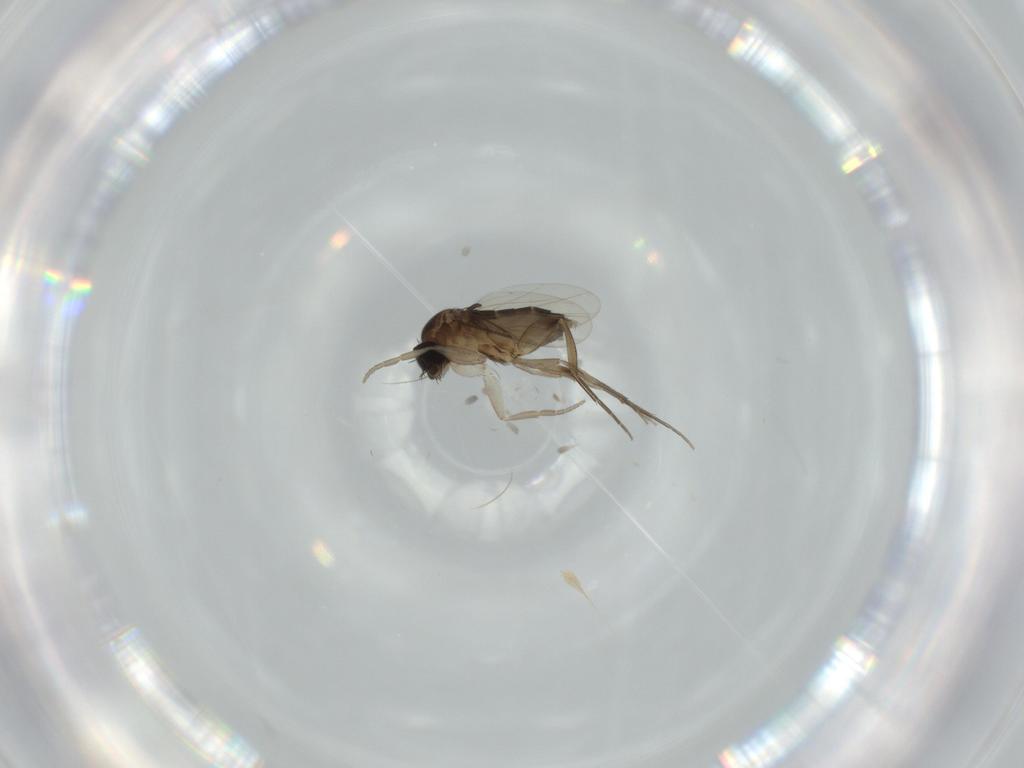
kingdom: Animalia
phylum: Arthropoda
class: Insecta
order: Diptera
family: Phoridae
